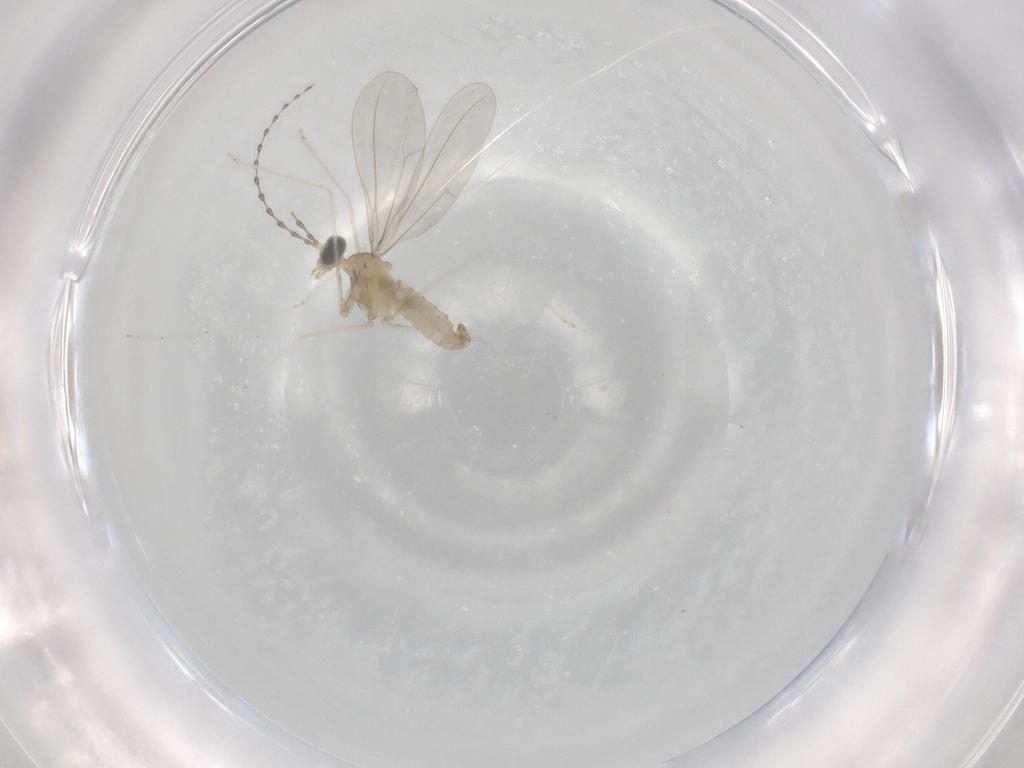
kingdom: Animalia
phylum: Arthropoda
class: Insecta
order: Diptera
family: Cecidomyiidae
